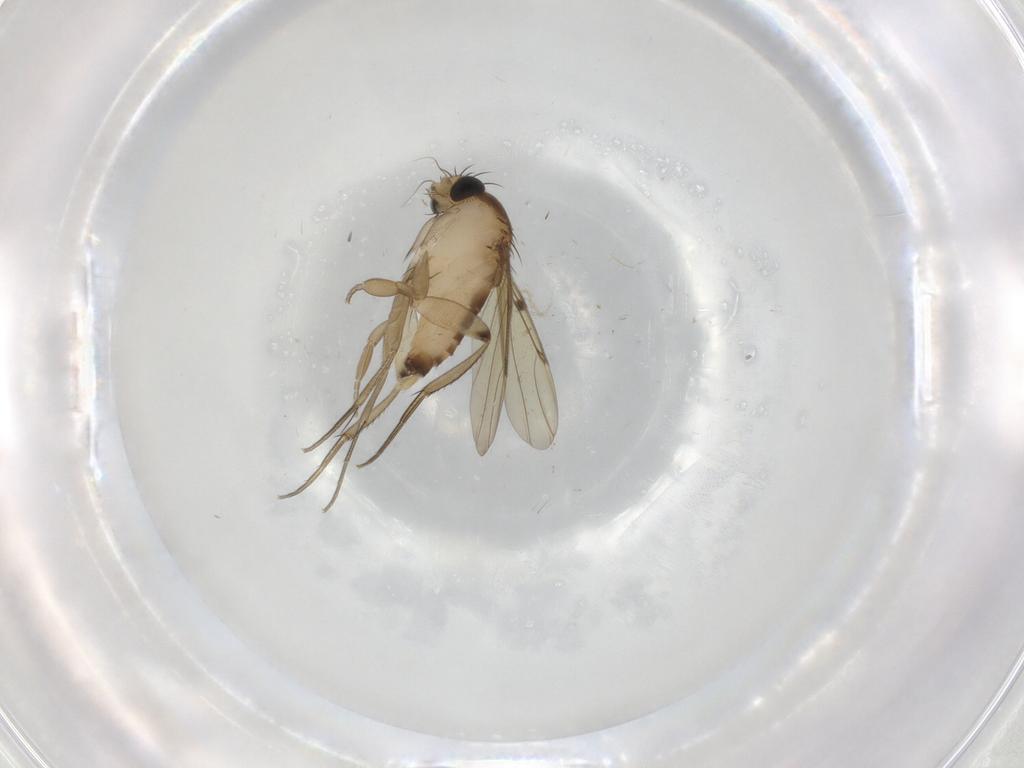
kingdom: Animalia
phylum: Arthropoda
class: Insecta
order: Diptera
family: Phoridae
